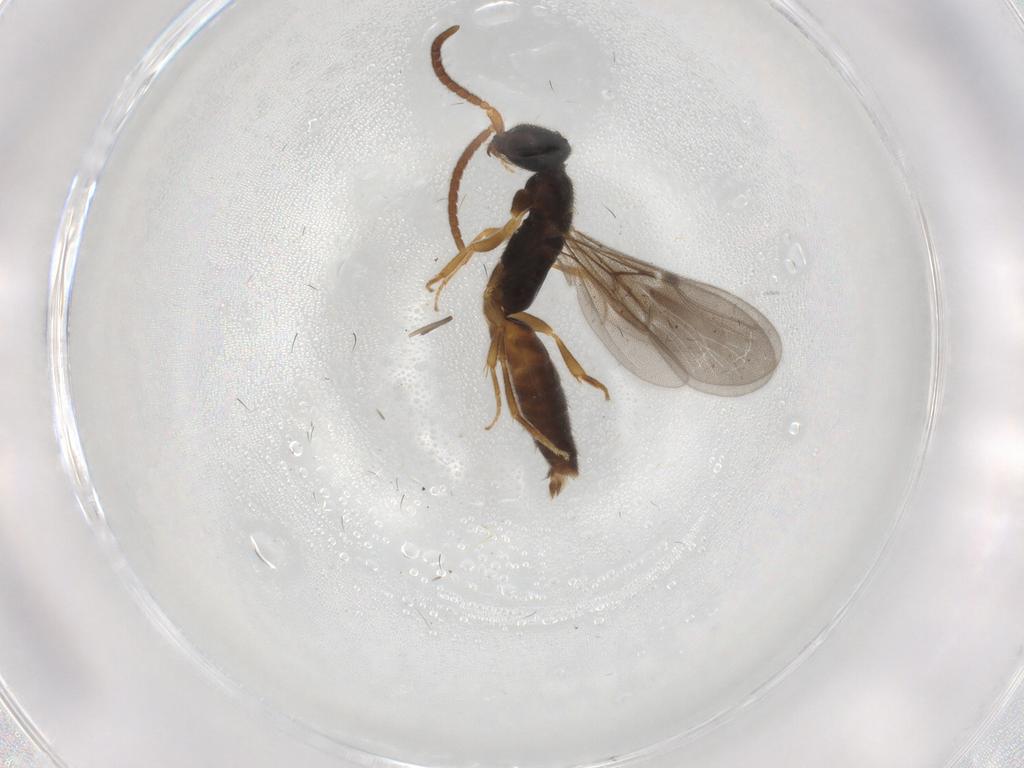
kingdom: Animalia
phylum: Arthropoda
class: Insecta
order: Hymenoptera
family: Bethylidae
